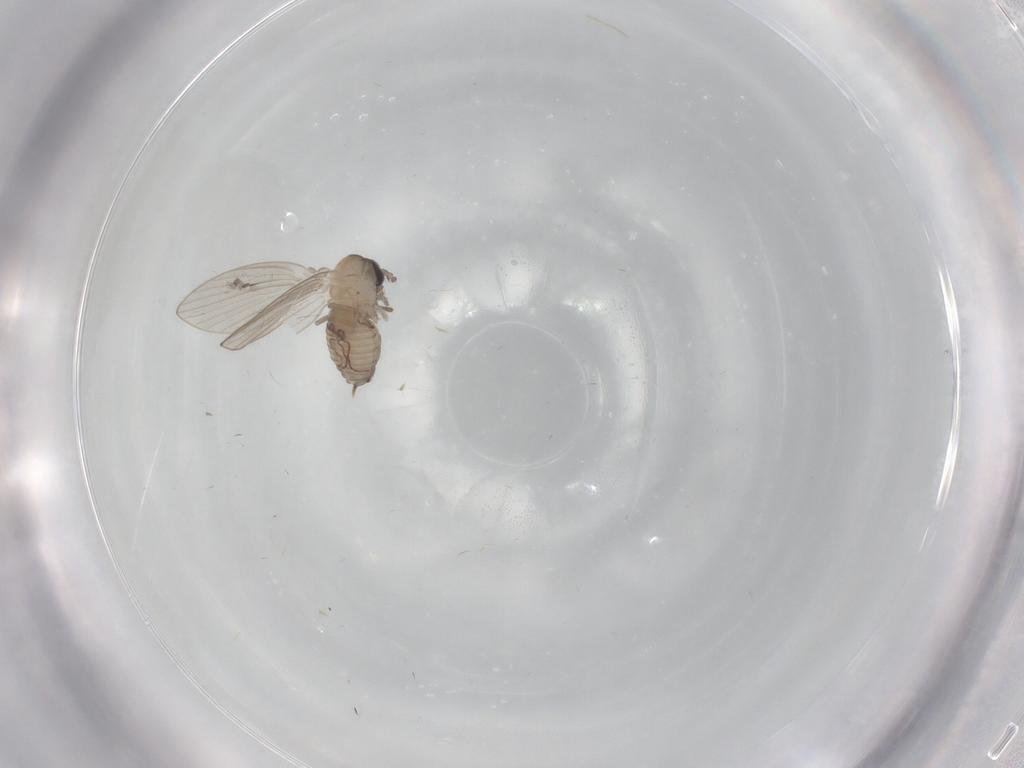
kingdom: Animalia
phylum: Arthropoda
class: Insecta
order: Diptera
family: Psychodidae
